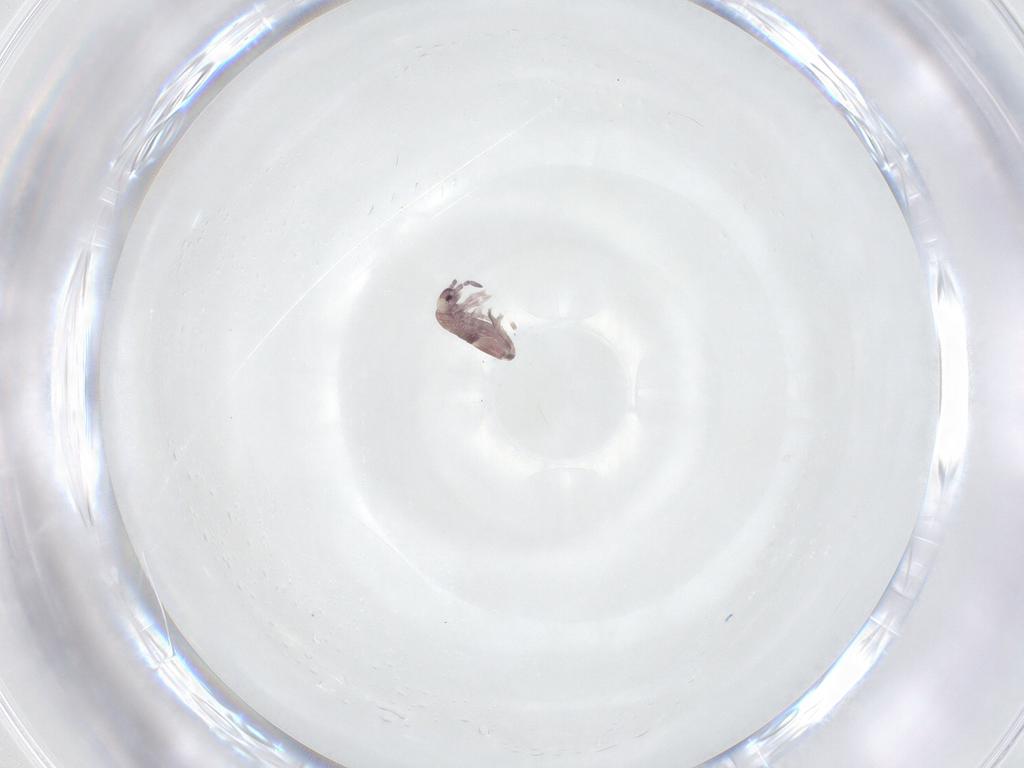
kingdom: Animalia
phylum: Arthropoda
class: Collembola
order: Entomobryomorpha
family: Entomobryidae
